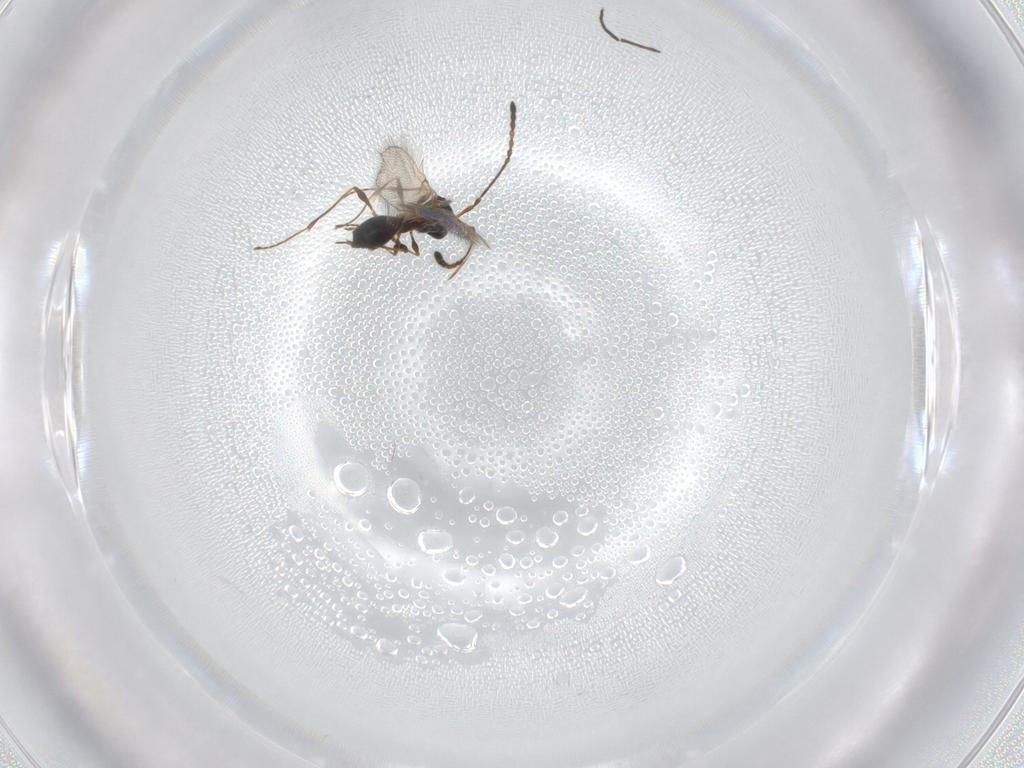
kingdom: Animalia
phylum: Arthropoda
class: Insecta
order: Hymenoptera
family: Diapriidae
